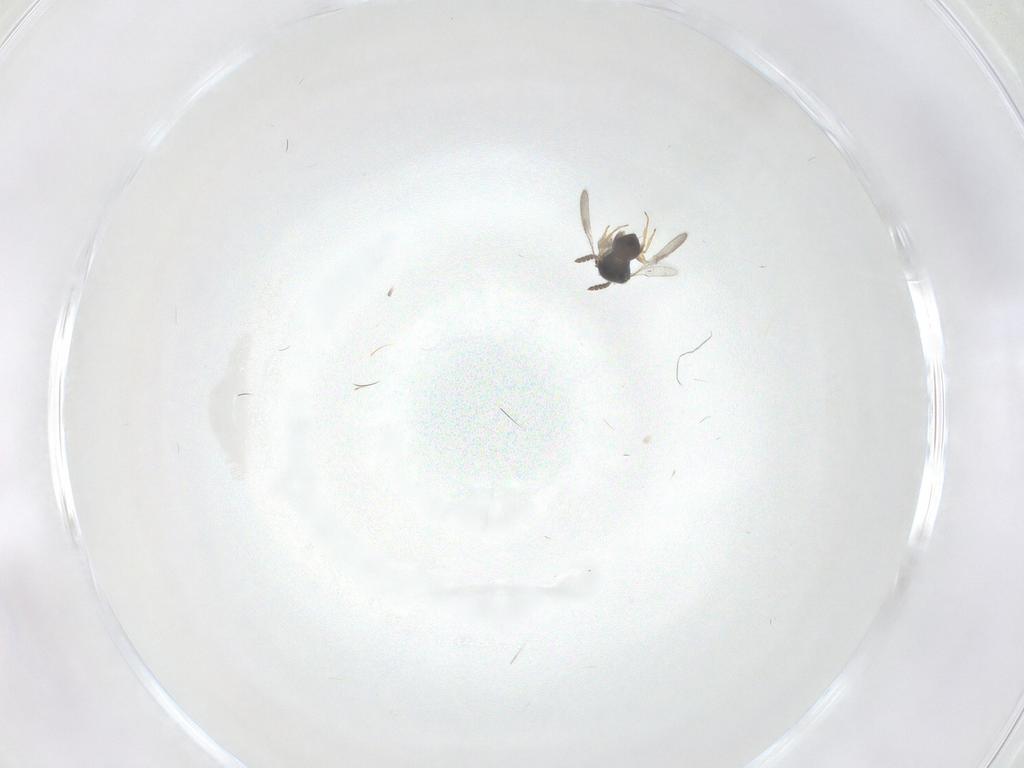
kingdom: Animalia
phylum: Arthropoda
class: Insecta
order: Hymenoptera
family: Scelionidae
